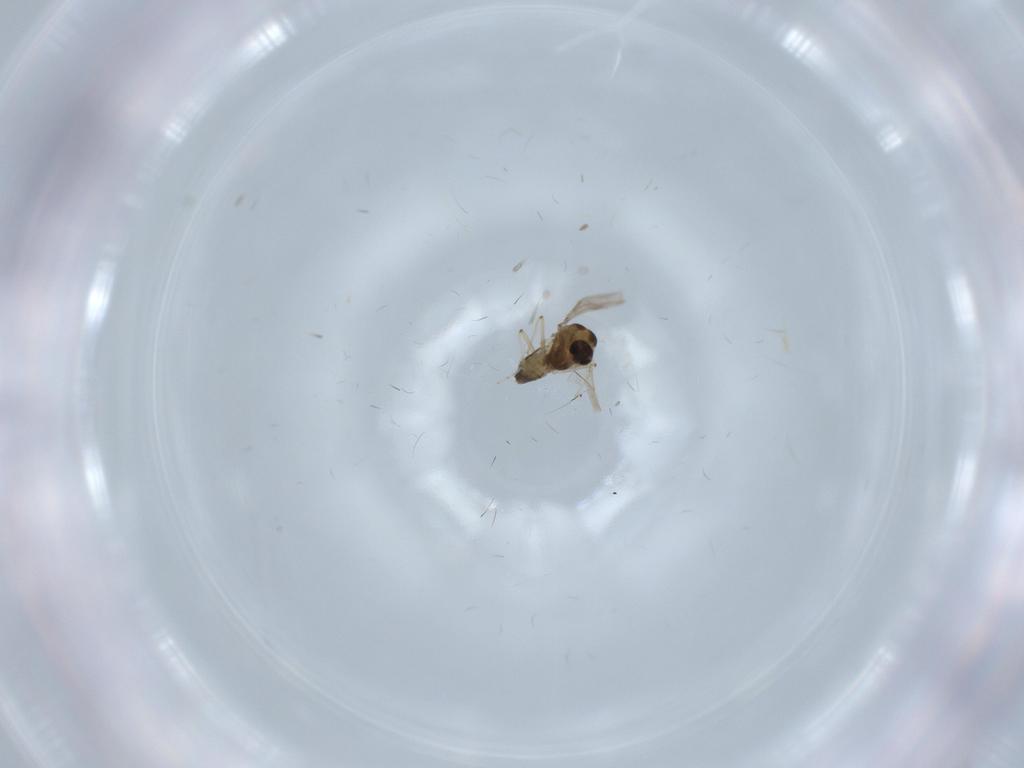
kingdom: Animalia
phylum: Arthropoda
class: Insecta
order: Diptera
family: Chironomidae
